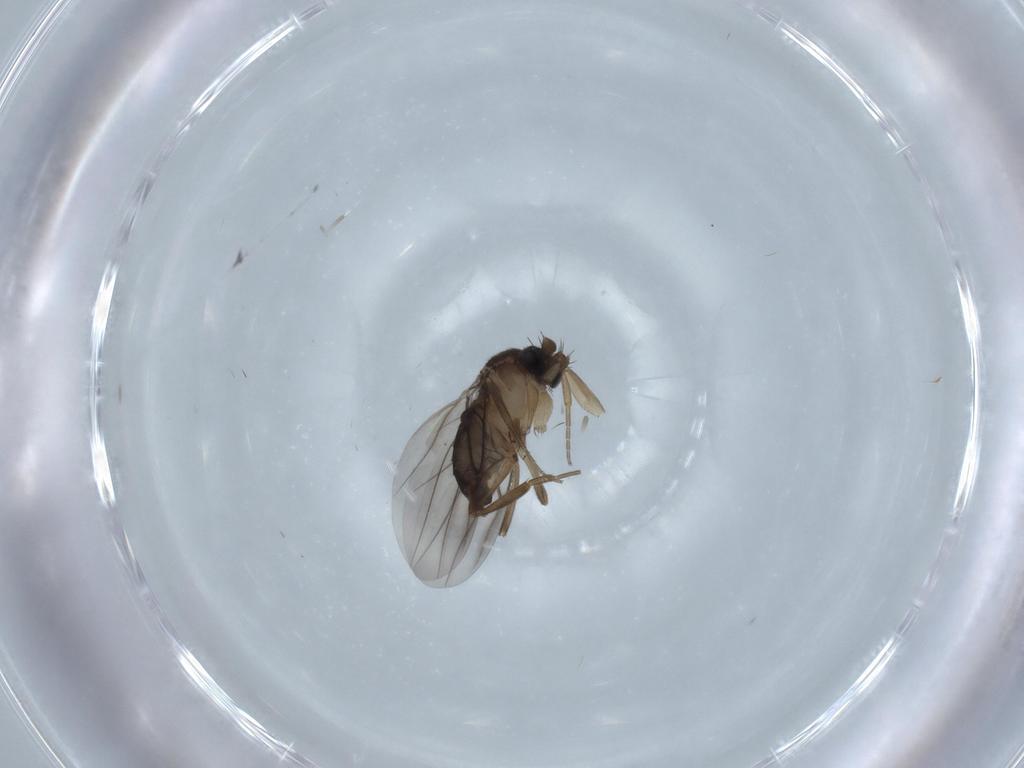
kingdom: Animalia
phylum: Arthropoda
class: Insecta
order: Diptera
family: Phoridae
